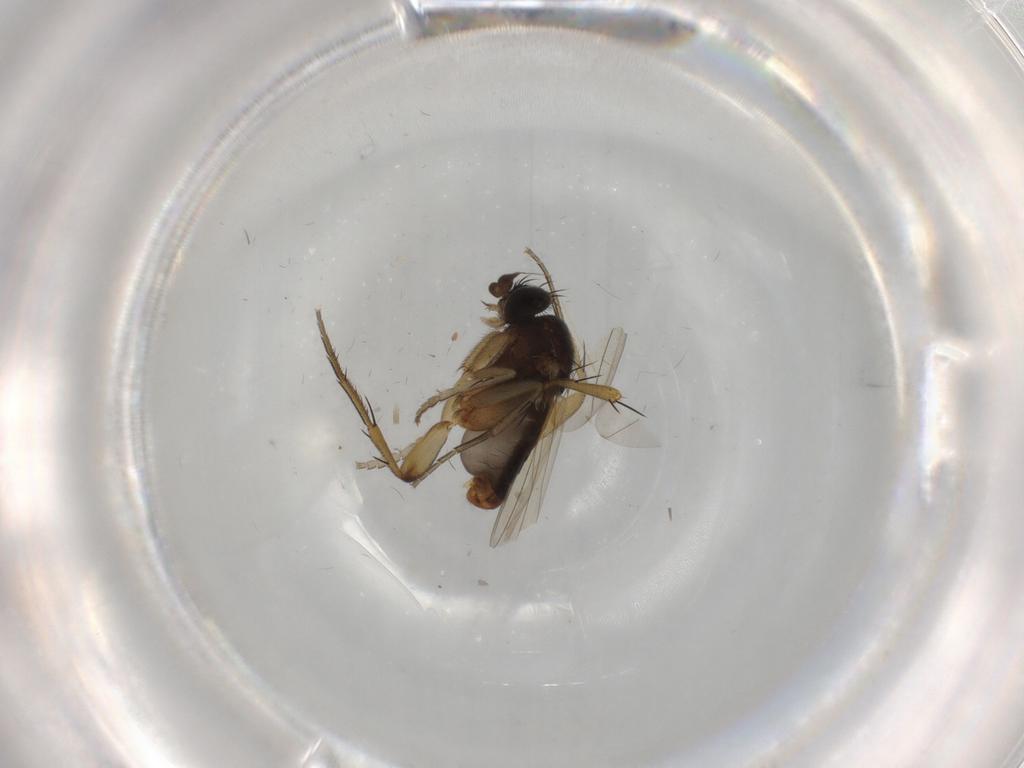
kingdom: Animalia
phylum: Arthropoda
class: Insecta
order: Diptera
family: Phoridae
